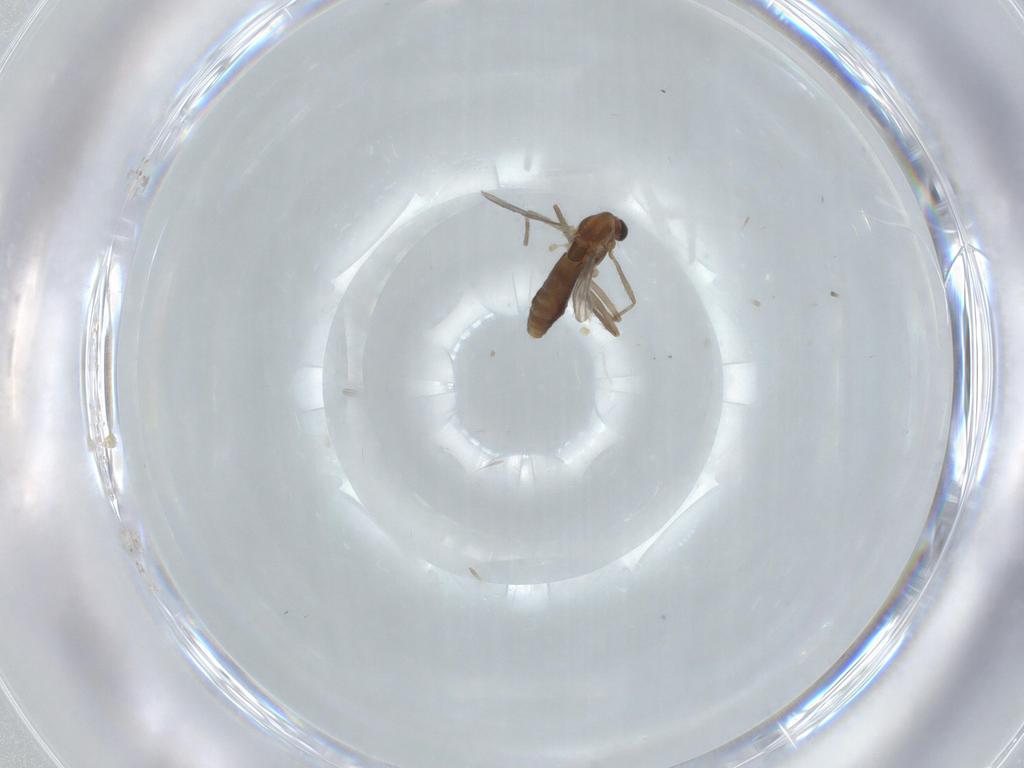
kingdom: Animalia
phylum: Arthropoda
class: Insecta
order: Diptera
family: Chironomidae
